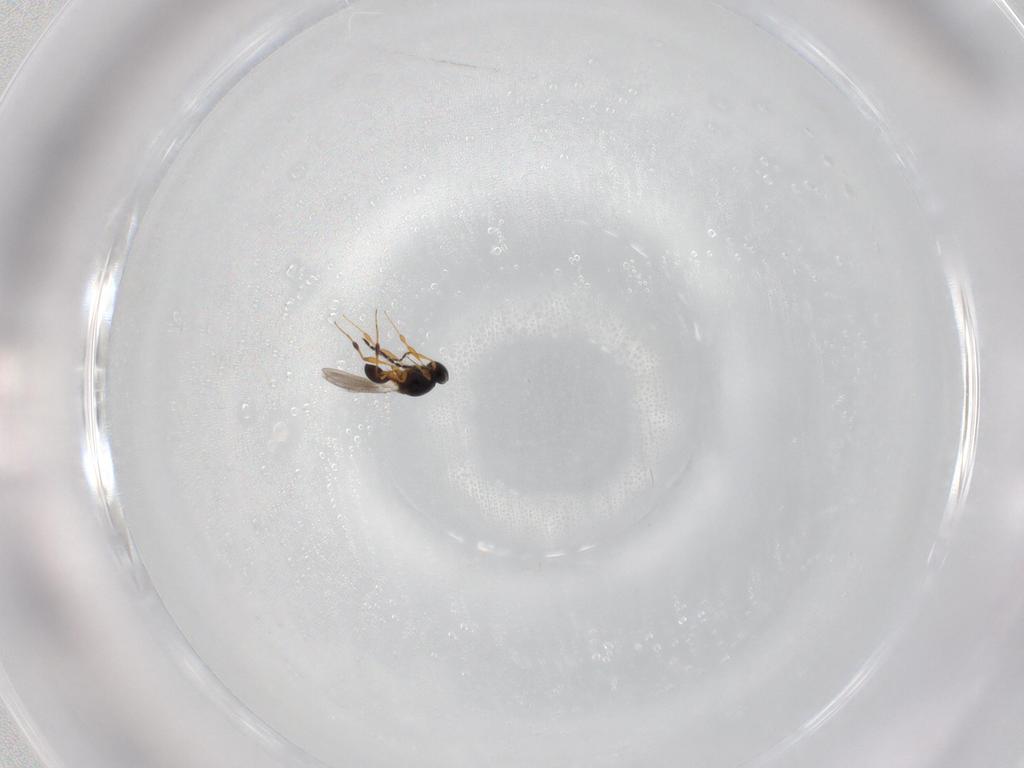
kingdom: Animalia
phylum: Arthropoda
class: Insecta
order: Hymenoptera
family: Platygastridae
